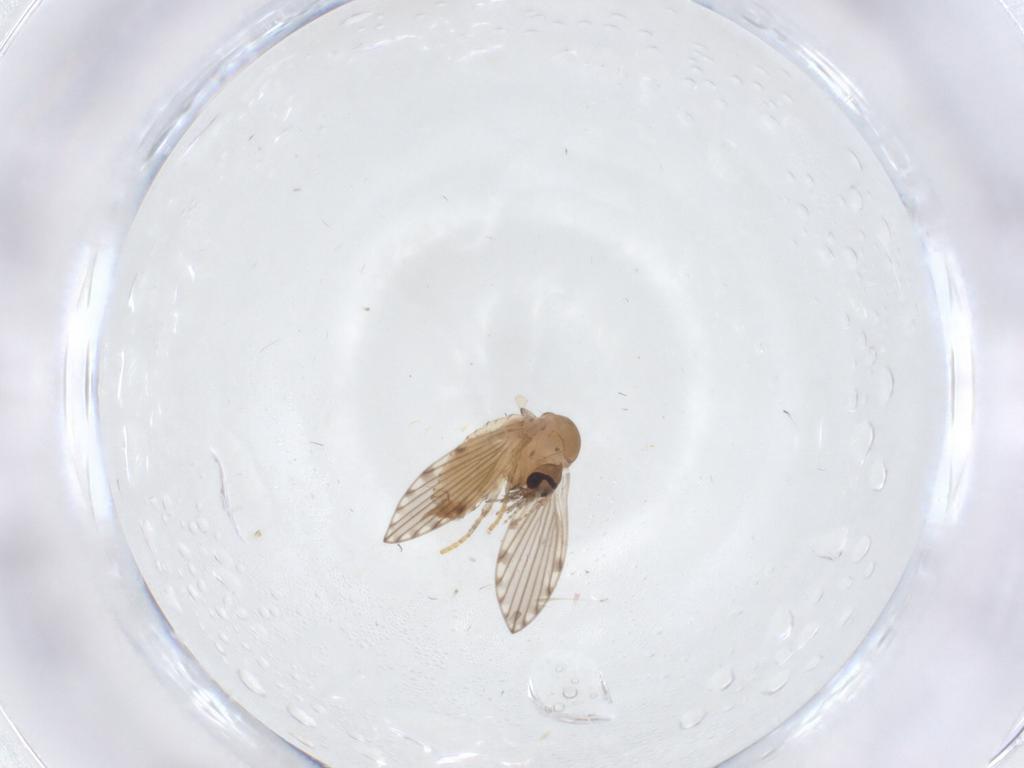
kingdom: Animalia
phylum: Arthropoda
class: Insecta
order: Diptera
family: Psychodidae
